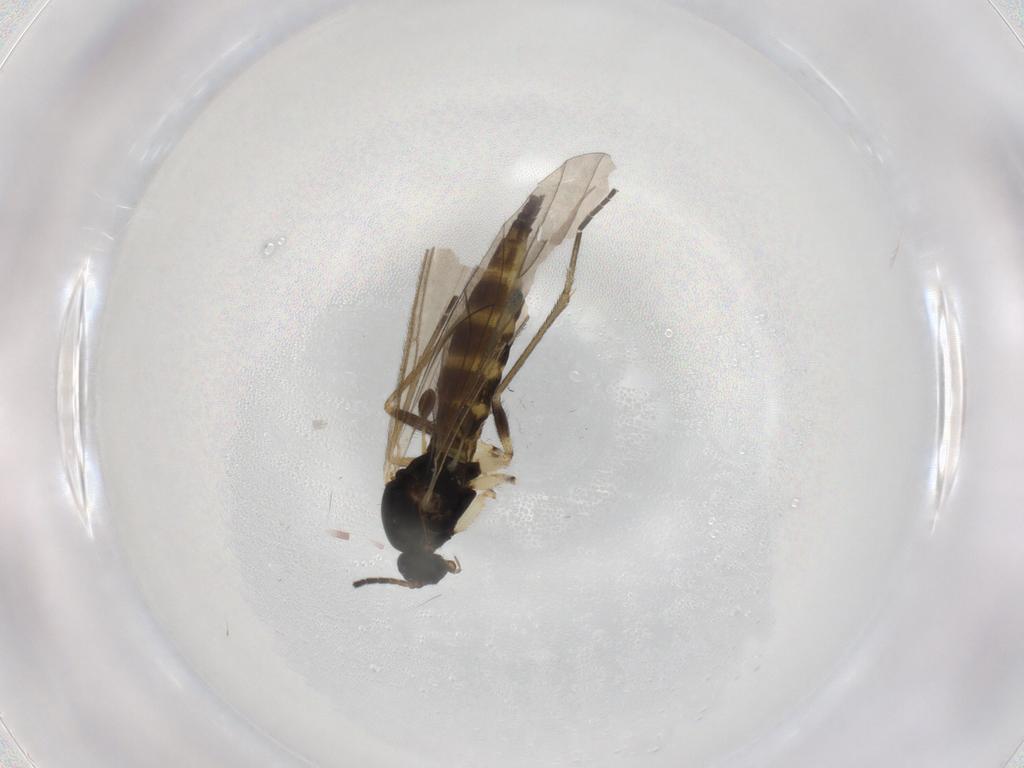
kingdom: Animalia
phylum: Arthropoda
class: Insecta
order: Diptera
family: Sciaridae
